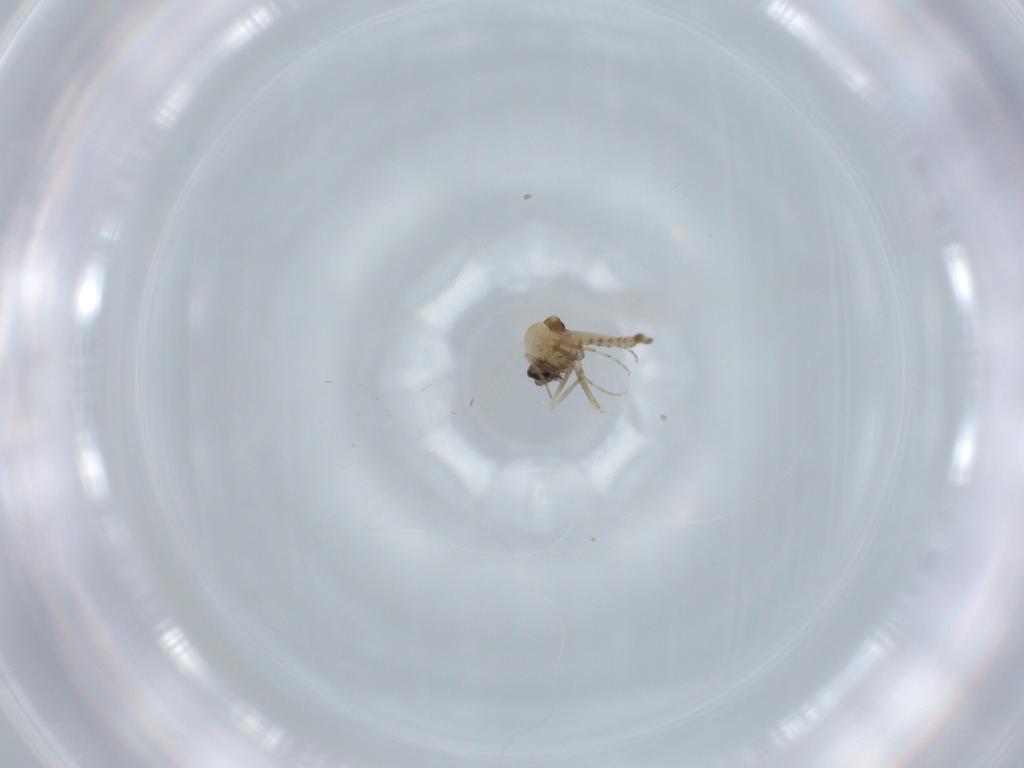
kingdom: Animalia
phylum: Arthropoda
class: Insecta
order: Diptera
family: Ceratopogonidae
